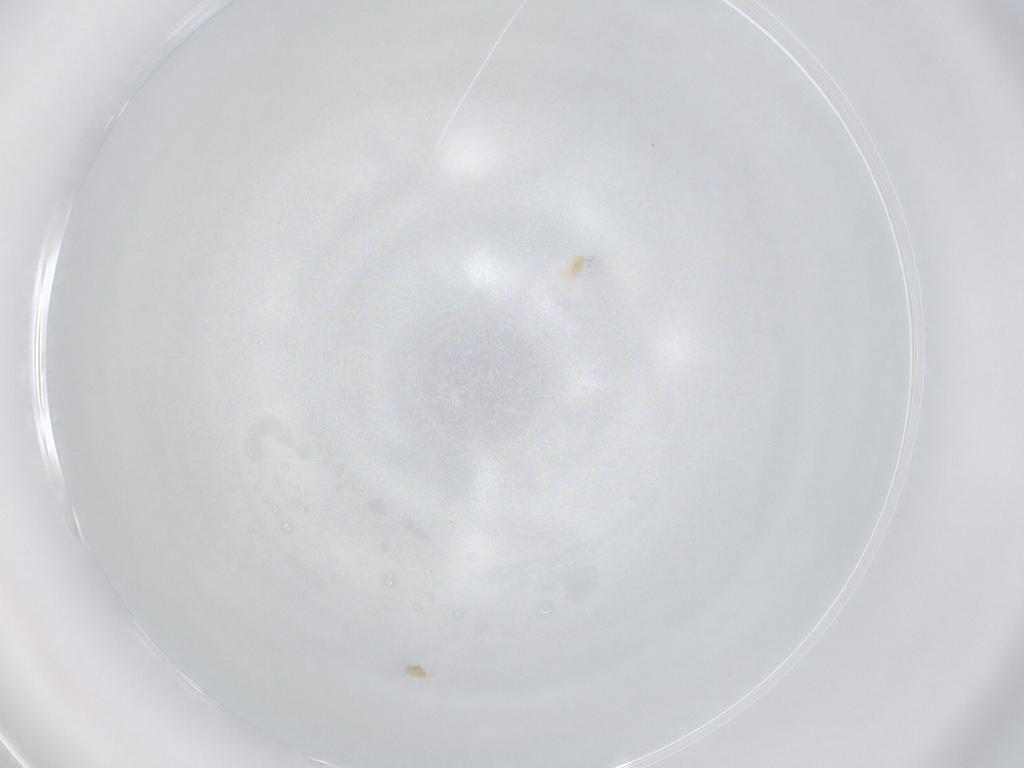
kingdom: Animalia
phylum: Arthropoda
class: Arachnida
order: Trombidiformes
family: Eupodidae
